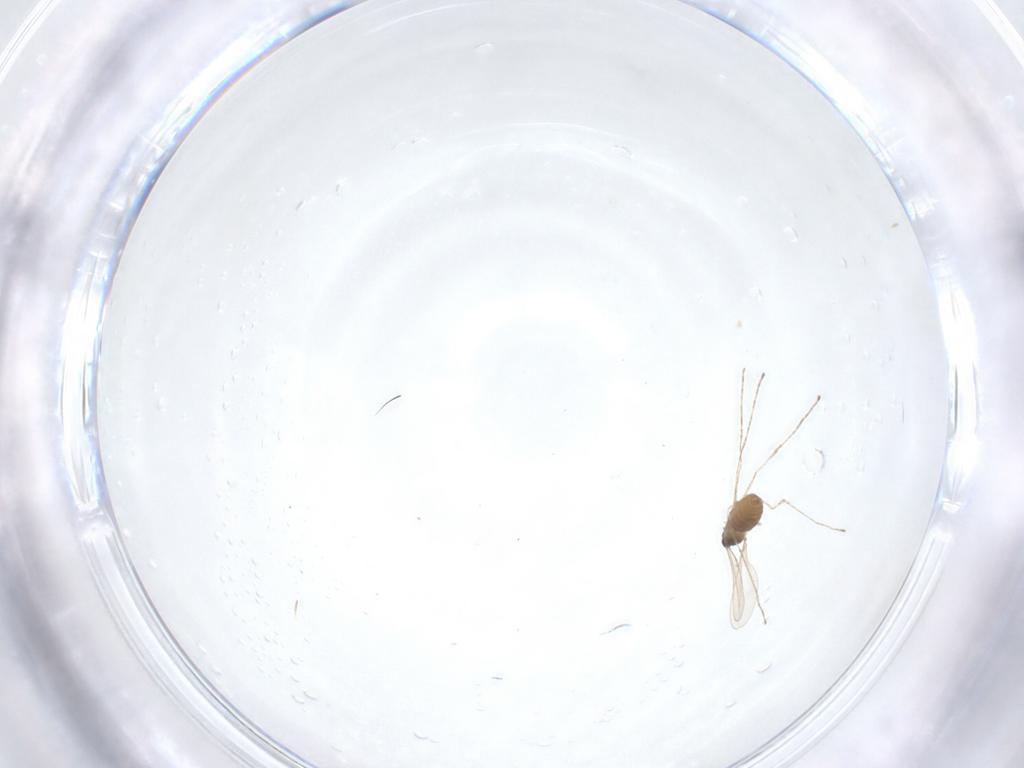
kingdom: Animalia
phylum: Arthropoda
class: Insecta
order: Diptera
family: Cecidomyiidae
